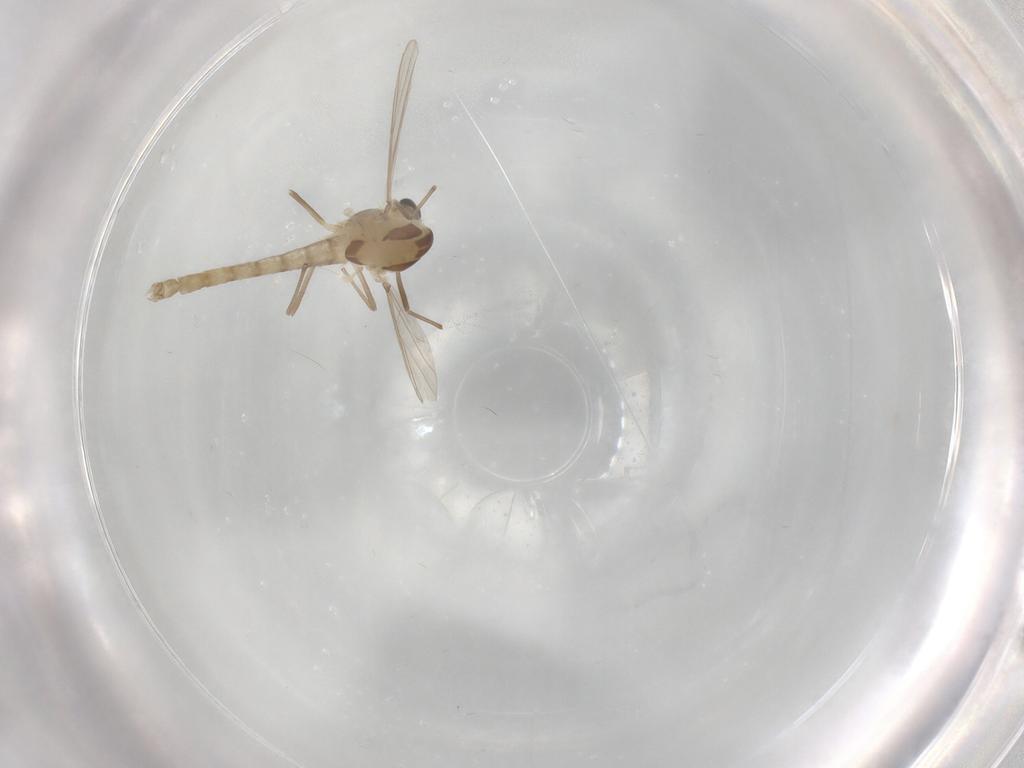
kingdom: Animalia
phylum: Arthropoda
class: Insecta
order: Diptera
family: Chironomidae
